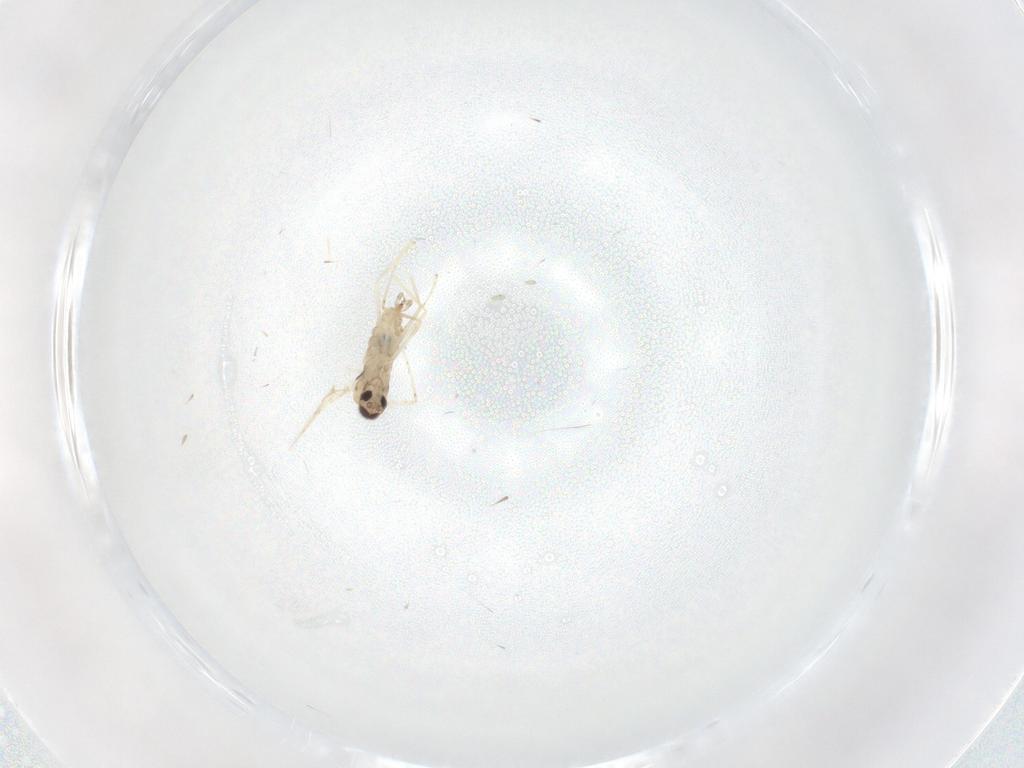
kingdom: Animalia
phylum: Arthropoda
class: Insecta
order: Diptera
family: Cecidomyiidae
